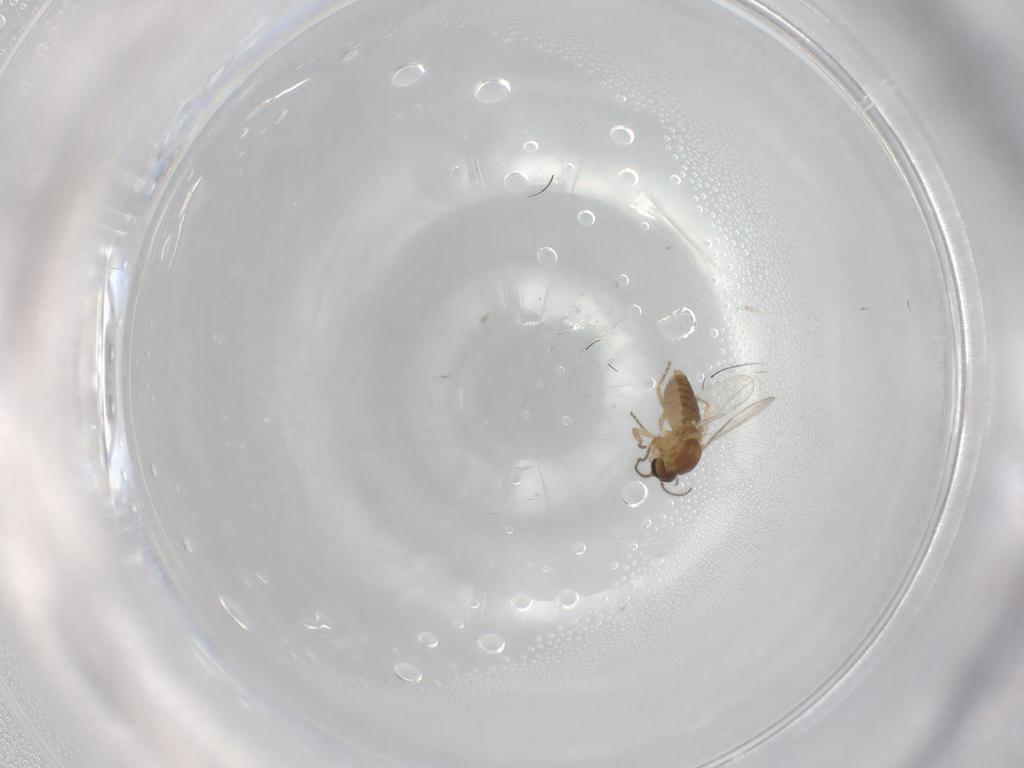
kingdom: Animalia
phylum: Arthropoda
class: Insecta
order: Diptera
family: Ceratopogonidae
